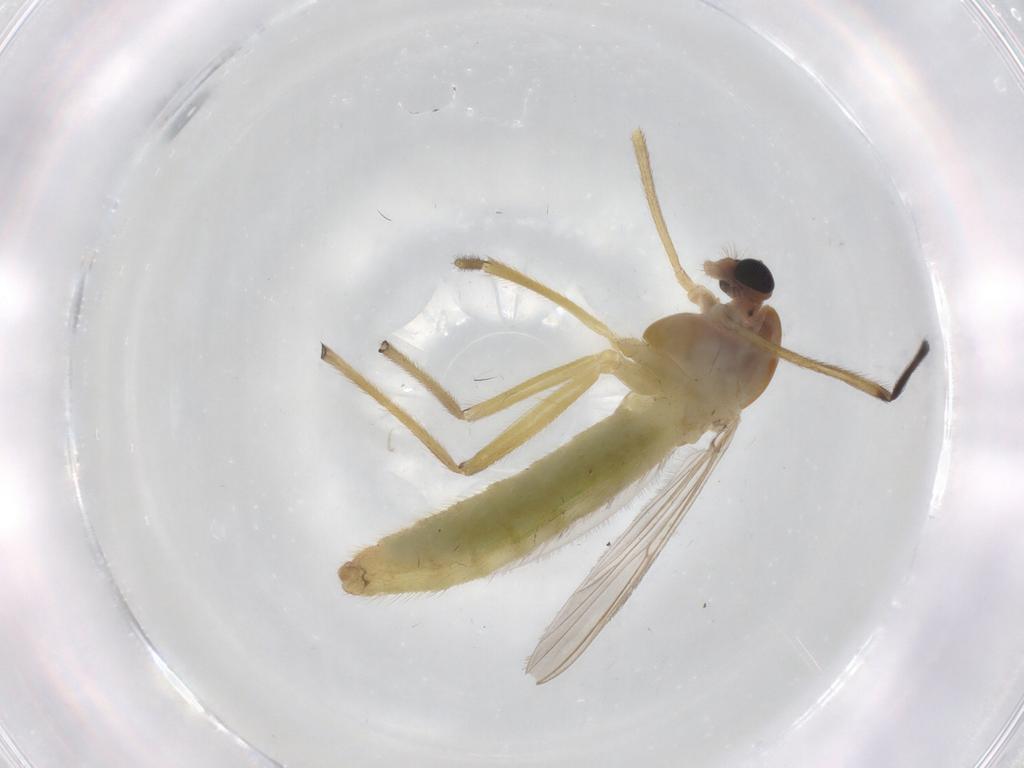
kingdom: Animalia
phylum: Arthropoda
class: Insecta
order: Diptera
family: Chironomidae
